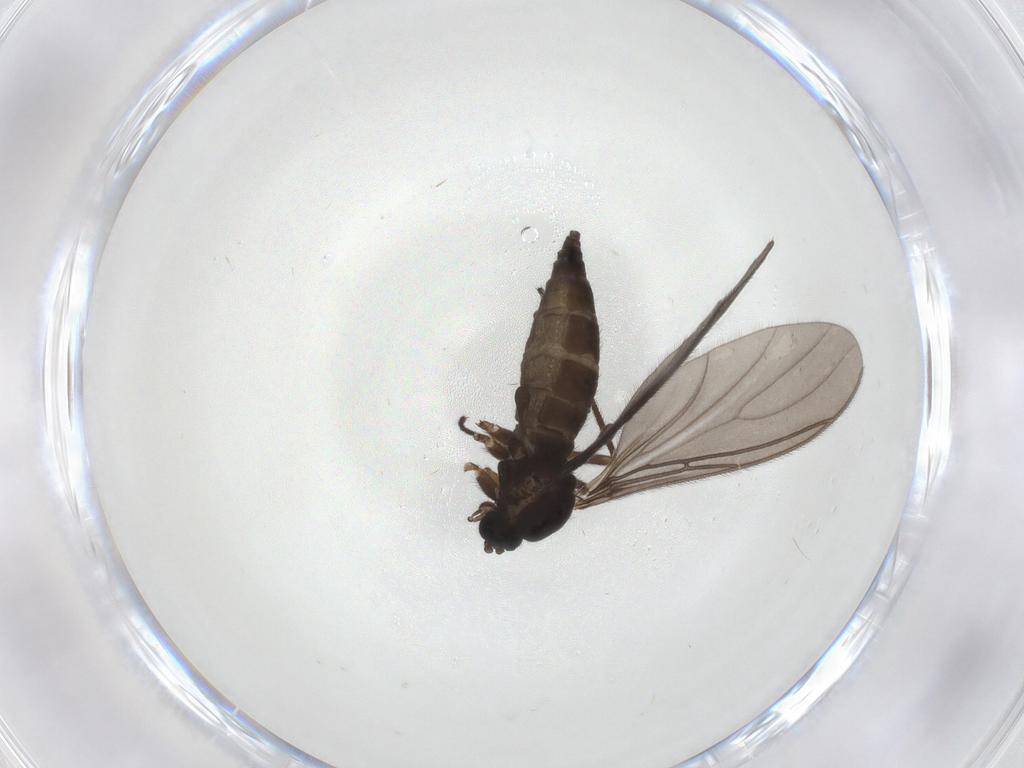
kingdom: Animalia
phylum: Arthropoda
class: Insecta
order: Diptera
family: Sciaridae
